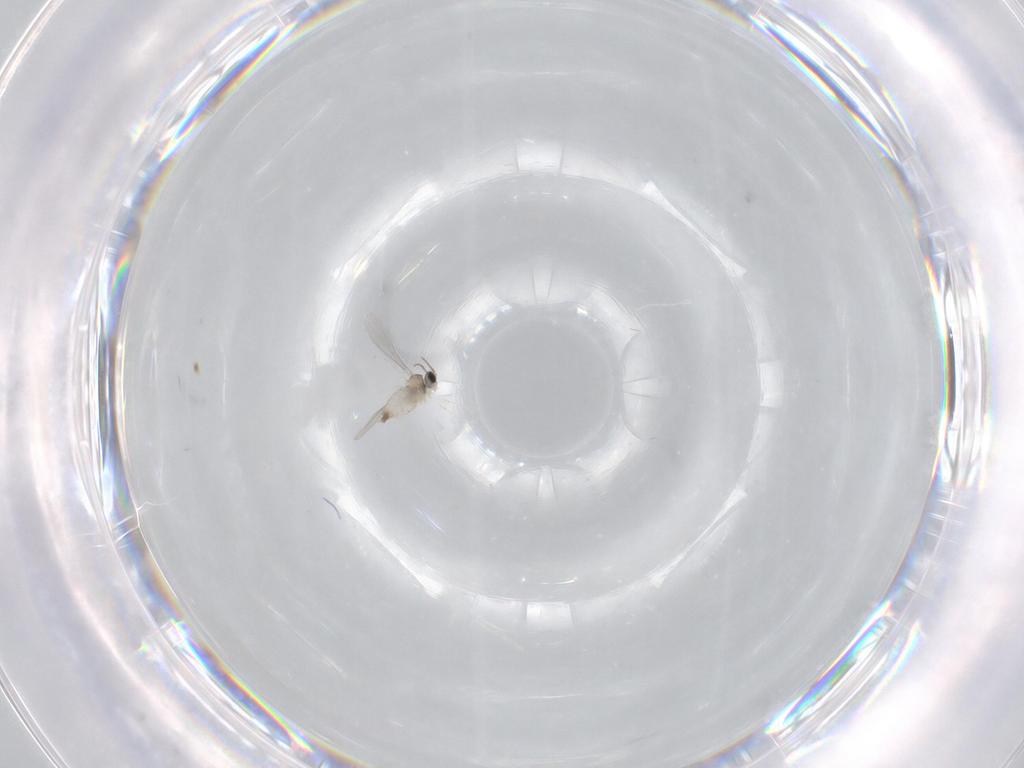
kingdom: Animalia
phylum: Arthropoda
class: Insecta
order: Diptera
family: Cecidomyiidae
